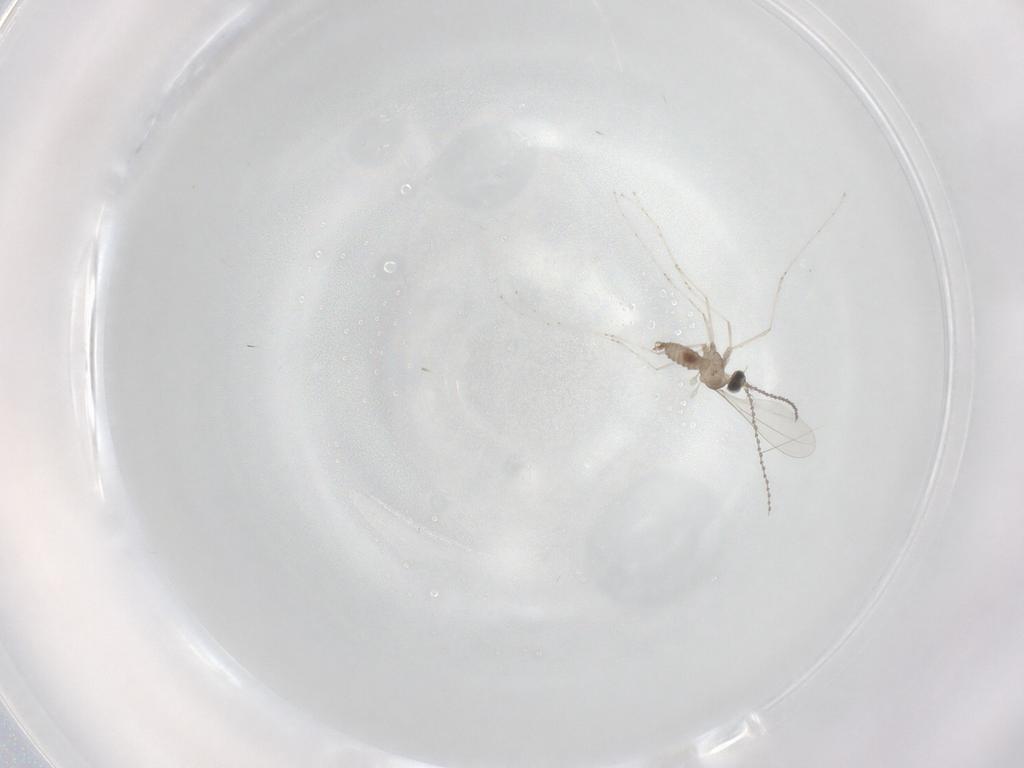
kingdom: Animalia
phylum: Arthropoda
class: Insecta
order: Diptera
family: Cecidomyiidae
